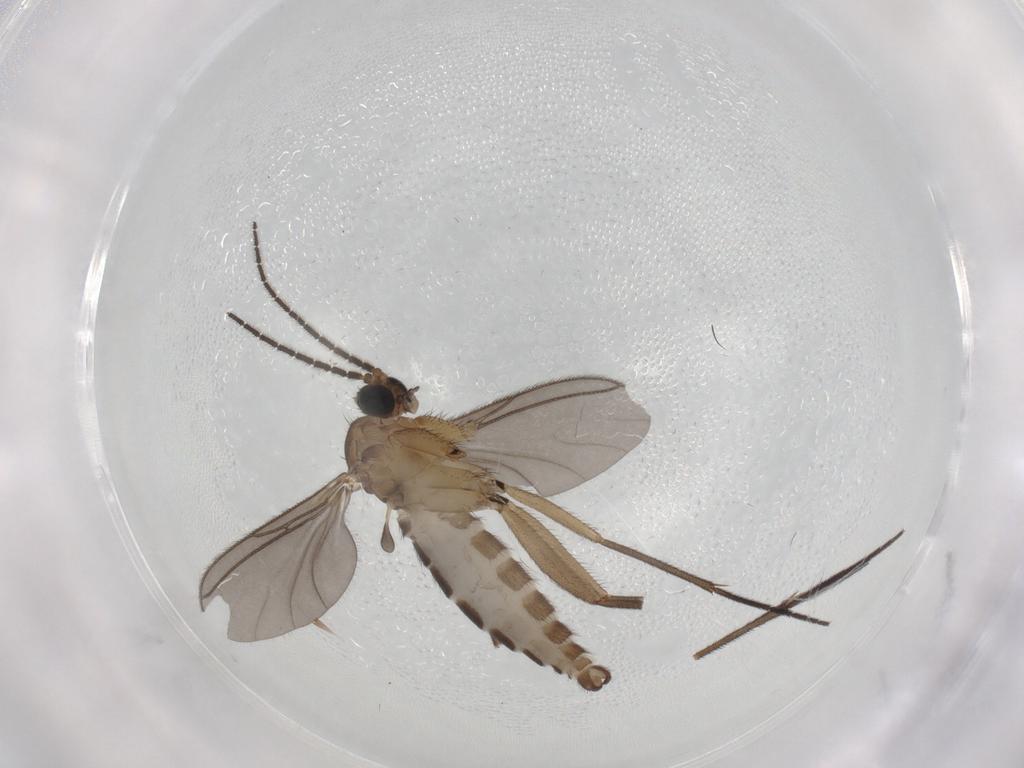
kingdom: Animalia
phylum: Arthropoda
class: Insecta
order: Diptera
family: Sciaridae
